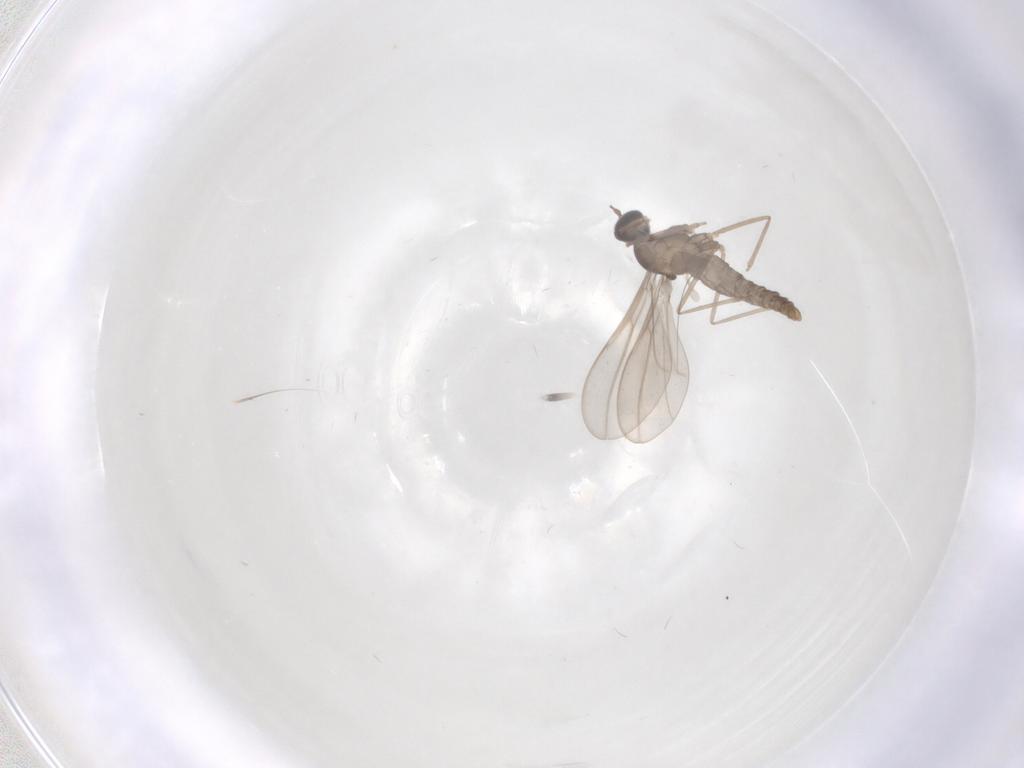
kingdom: Animalia
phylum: Arthropoda
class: Insecta
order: Diptera
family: Cecidomyiidae
